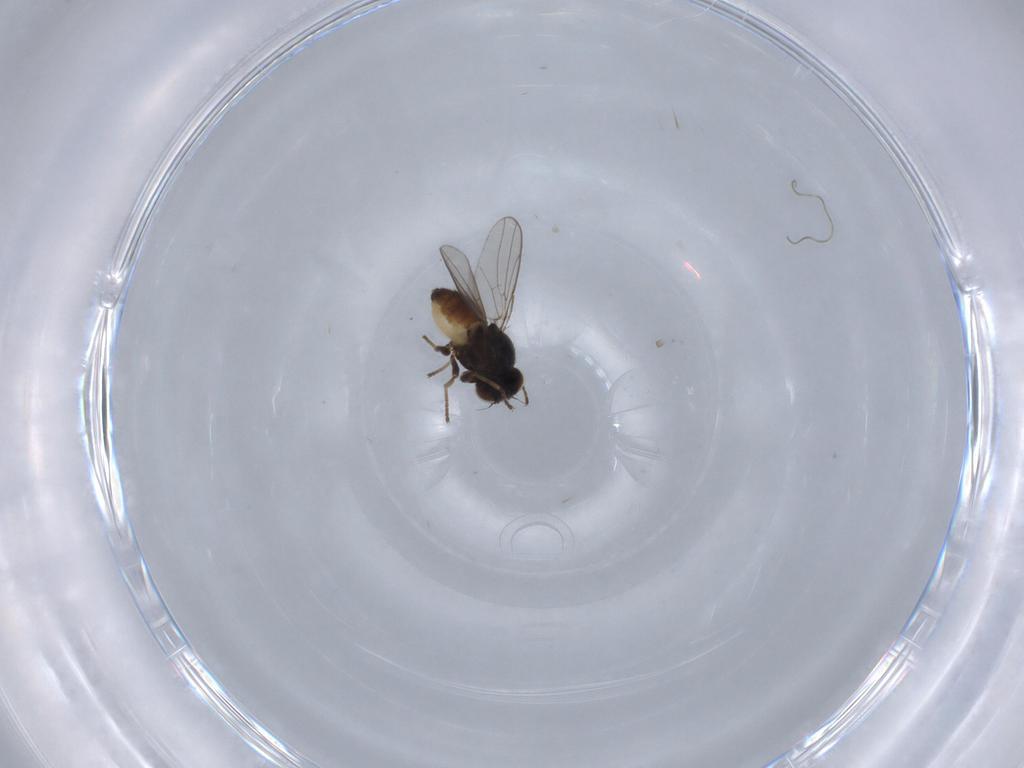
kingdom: Animalia
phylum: Arthropoda
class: Insecta
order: Diptera
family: Chloropidae
